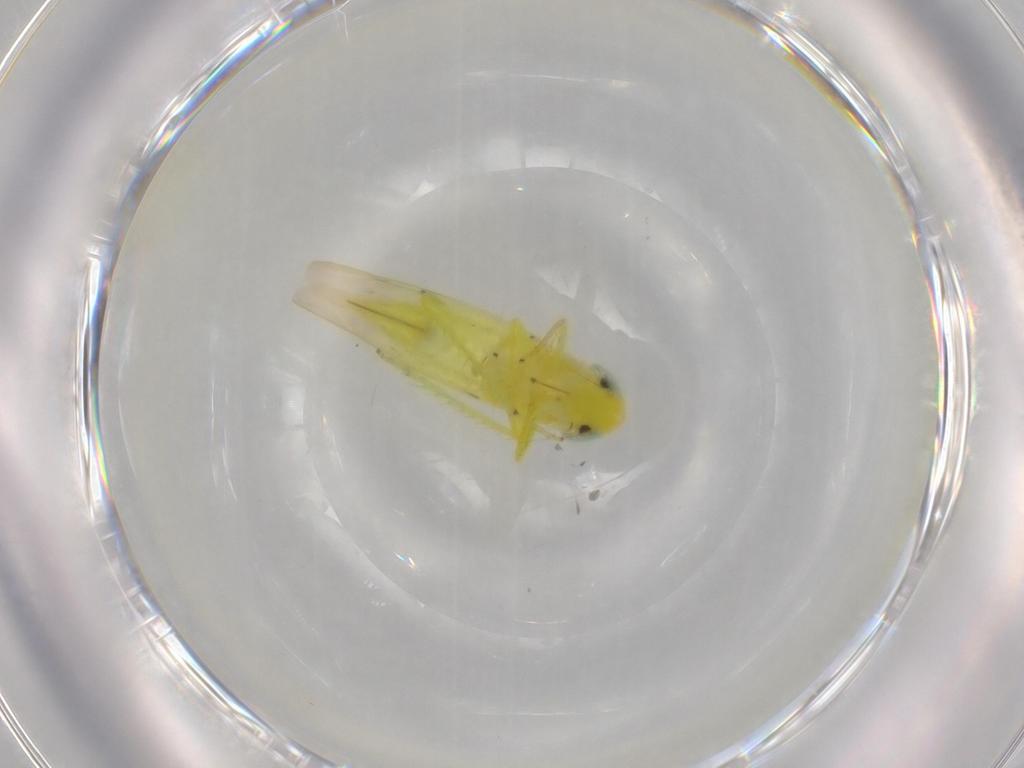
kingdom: Animalia
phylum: Arthropoda
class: Insecta
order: Hemiptera
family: Cicadellidae
